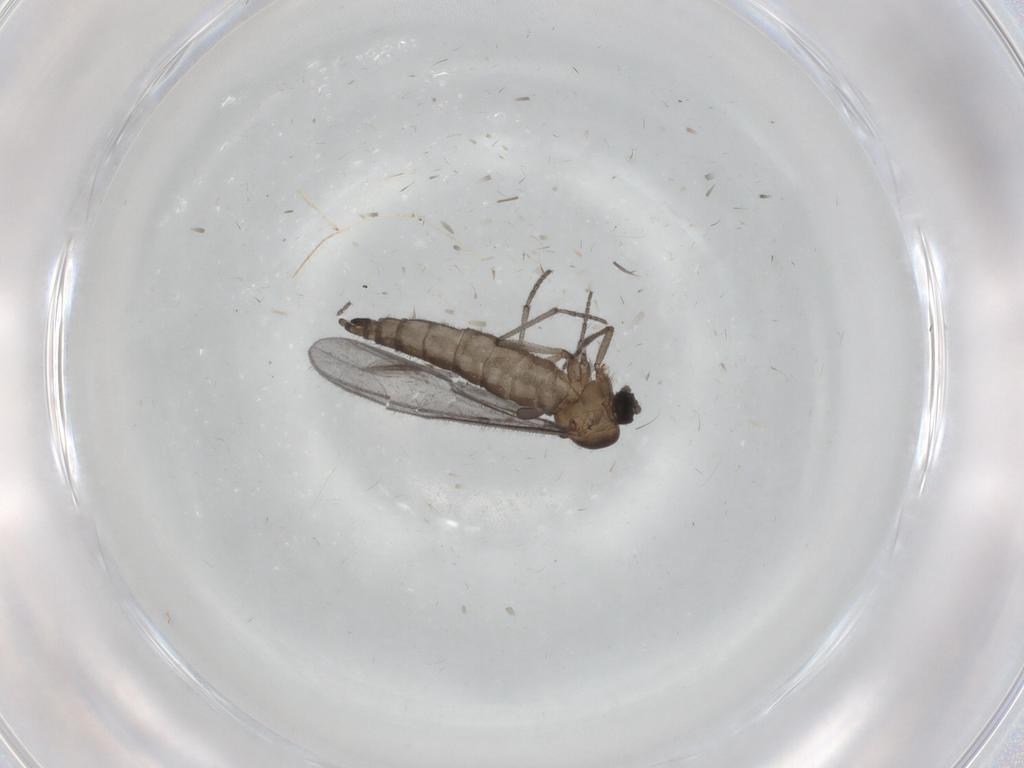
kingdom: Animalia
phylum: Arthropoda
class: Insecta
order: Diptera
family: Sciaridae
